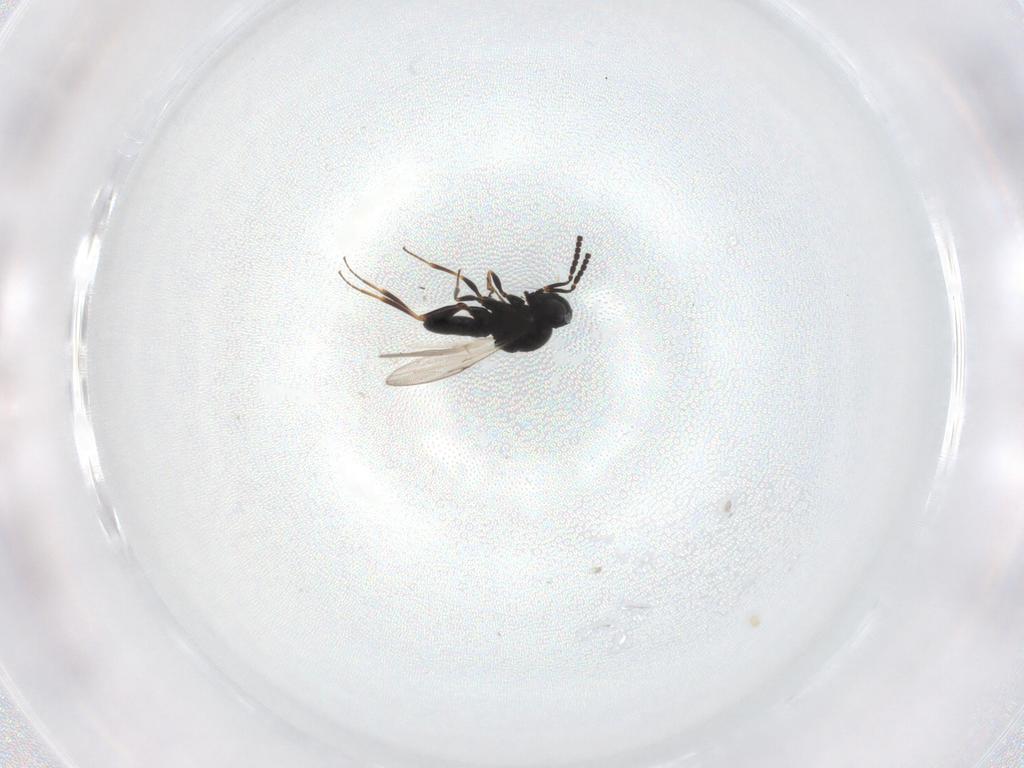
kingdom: Animalia
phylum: Arthropoda
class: Insecta
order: Hymenoptera
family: Scelionidae
